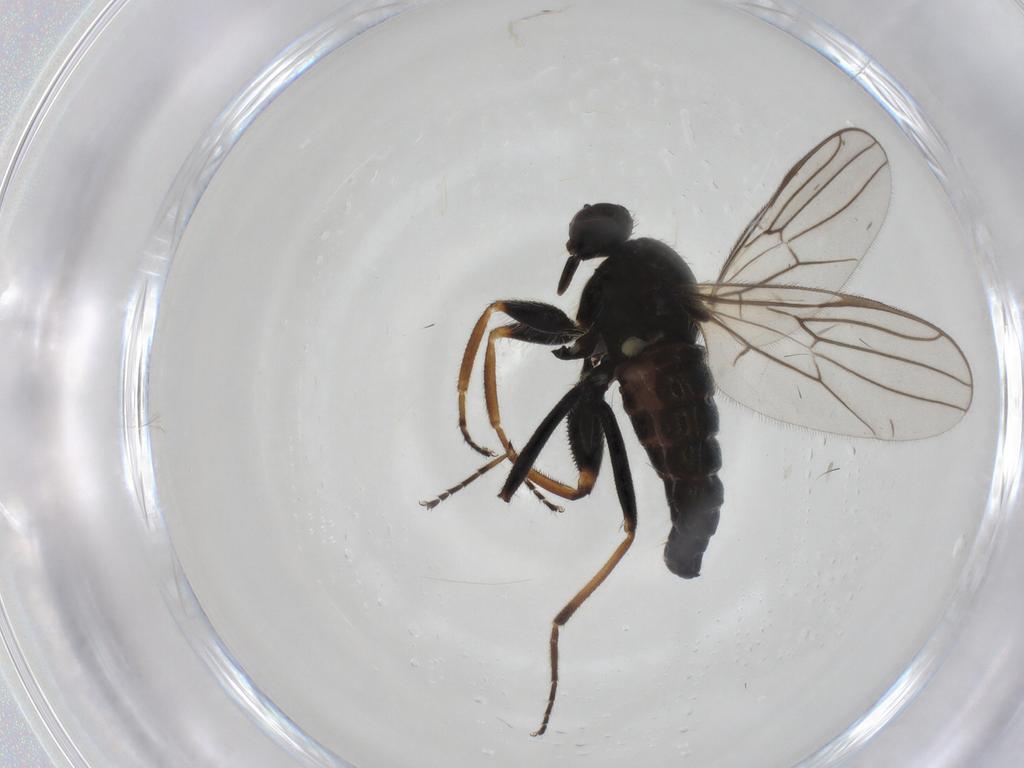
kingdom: Animalia
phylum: Arthropoda
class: Insecta
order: Diptera
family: Hybotidae
